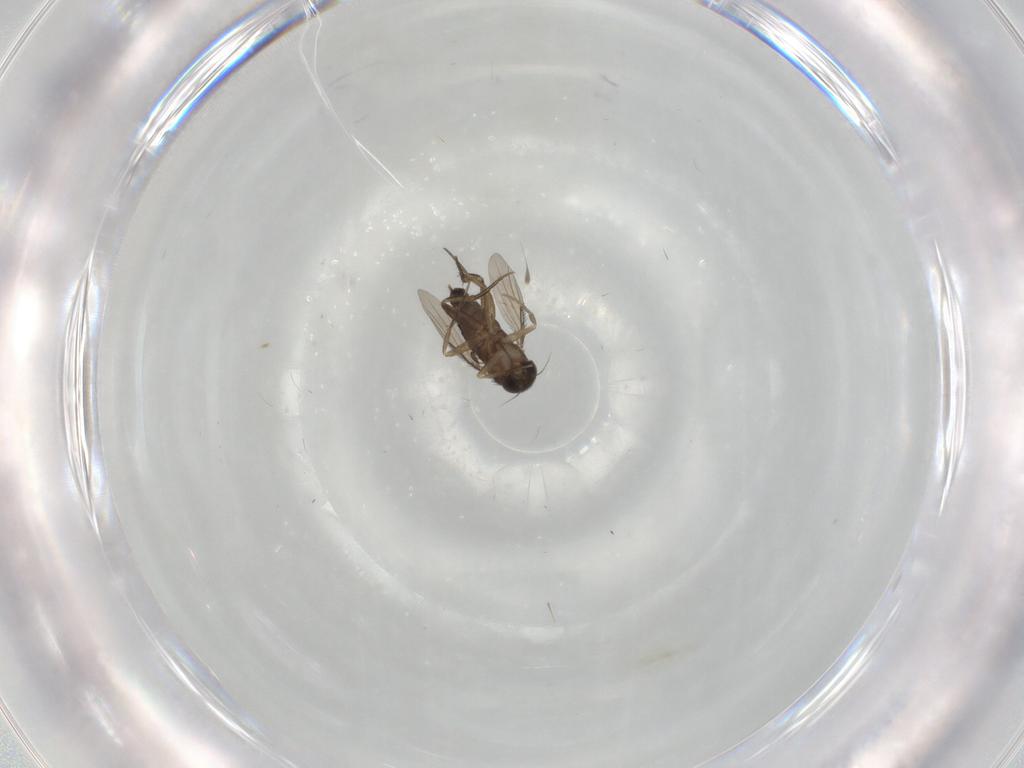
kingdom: Animalia
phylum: Arthropoda
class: Insecta
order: Diptera
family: Phoridae
